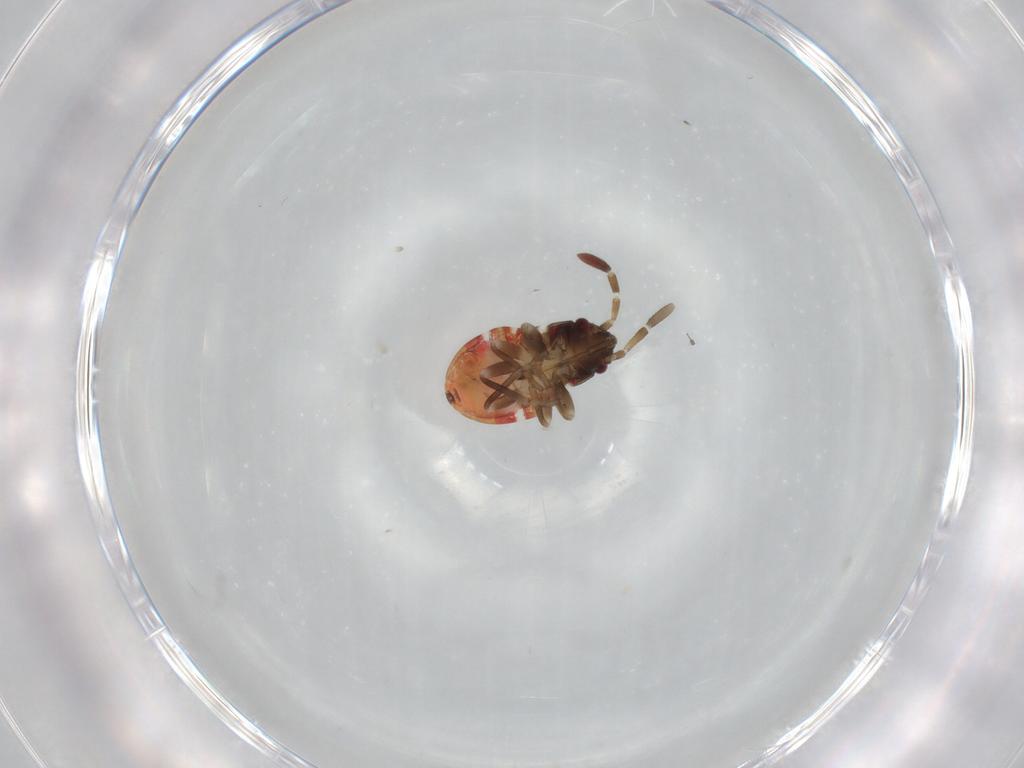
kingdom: Animalia
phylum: Arthropoda
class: Insecta
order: Hemiptera
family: Rhyparochromidae
